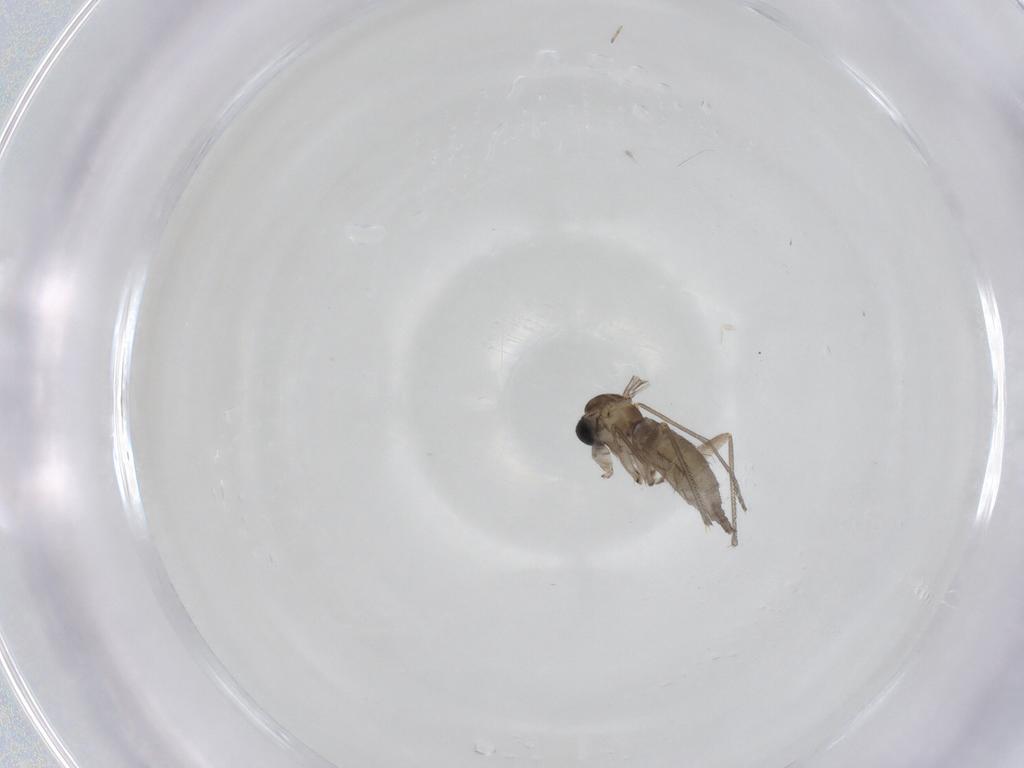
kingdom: Animalia
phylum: Arthropoda
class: Insecta
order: Diptera
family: Sciaridae
